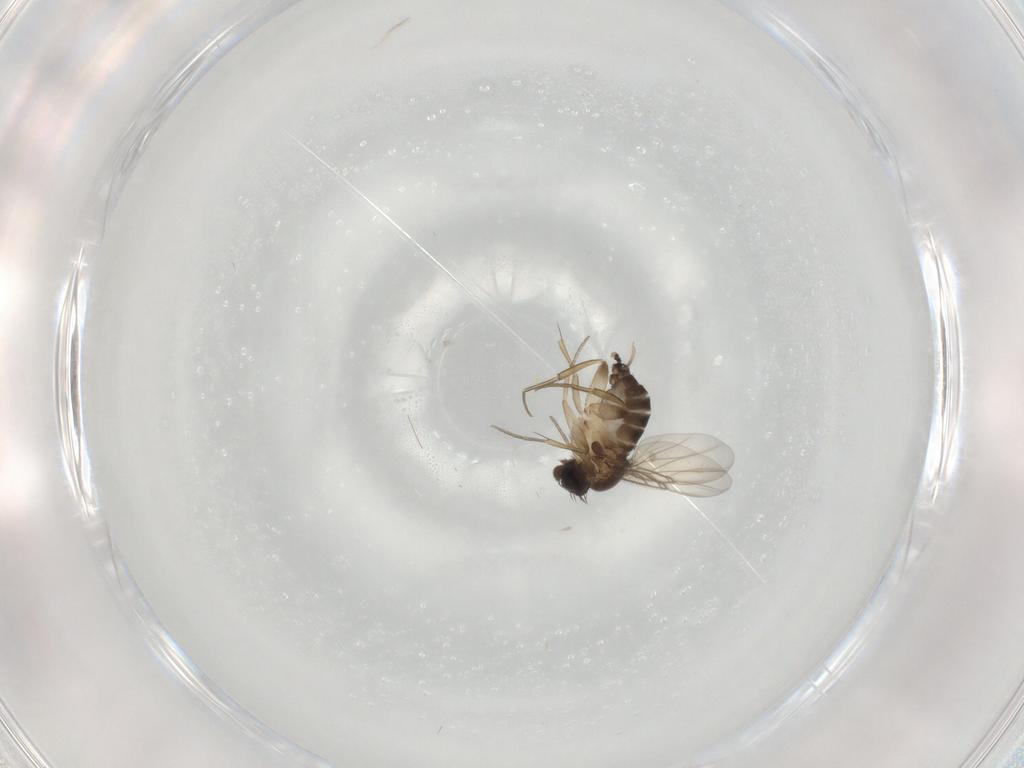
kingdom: Animalia
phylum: Arthropoda
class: Insecta
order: Diptera
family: Phoridae
